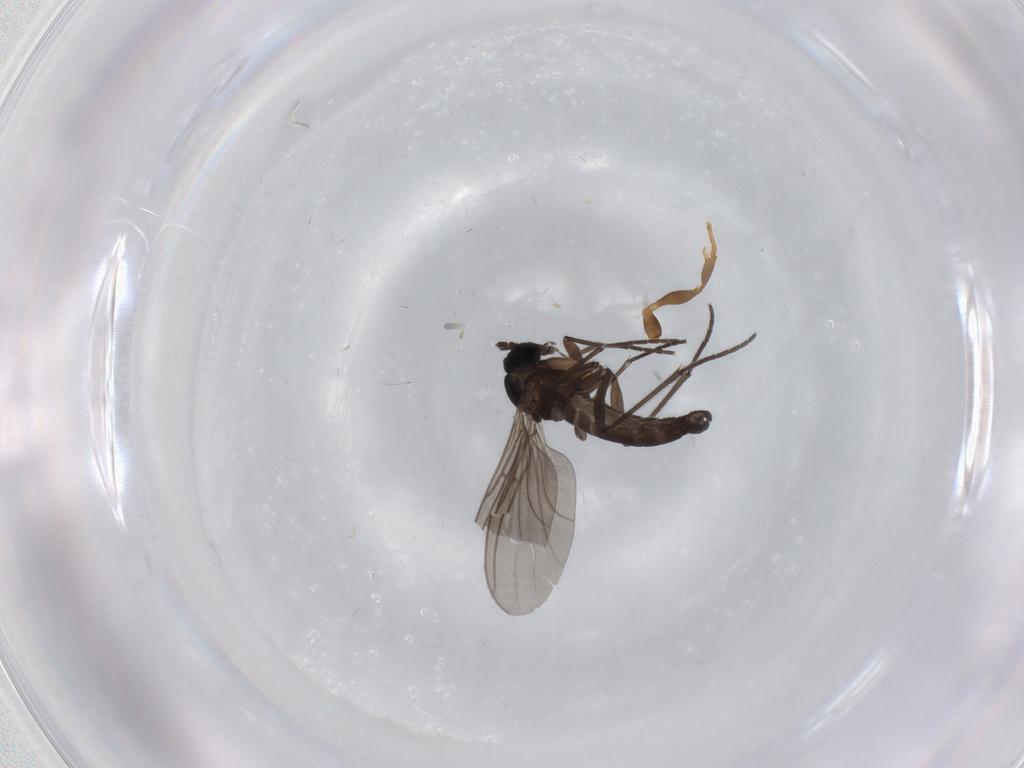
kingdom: Animalia
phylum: Arthropoda
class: Insecta
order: Diptera
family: Sciaridae
